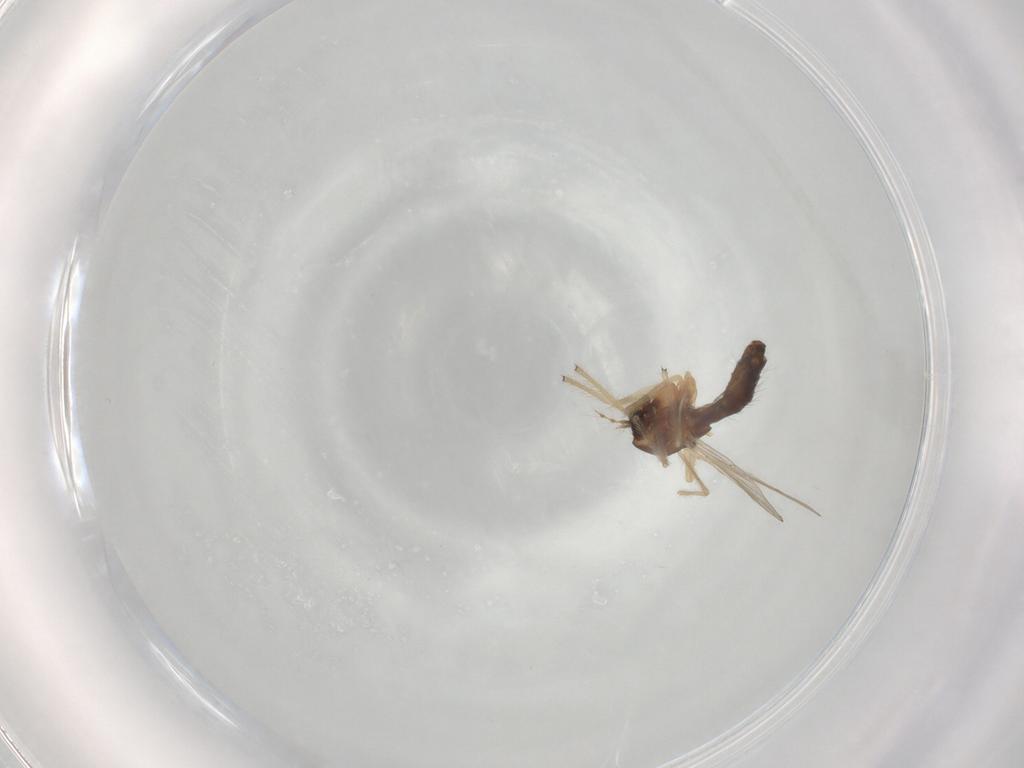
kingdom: Animalia
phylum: Arthropoda
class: Insecta
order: Diptera
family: Chironomidae
